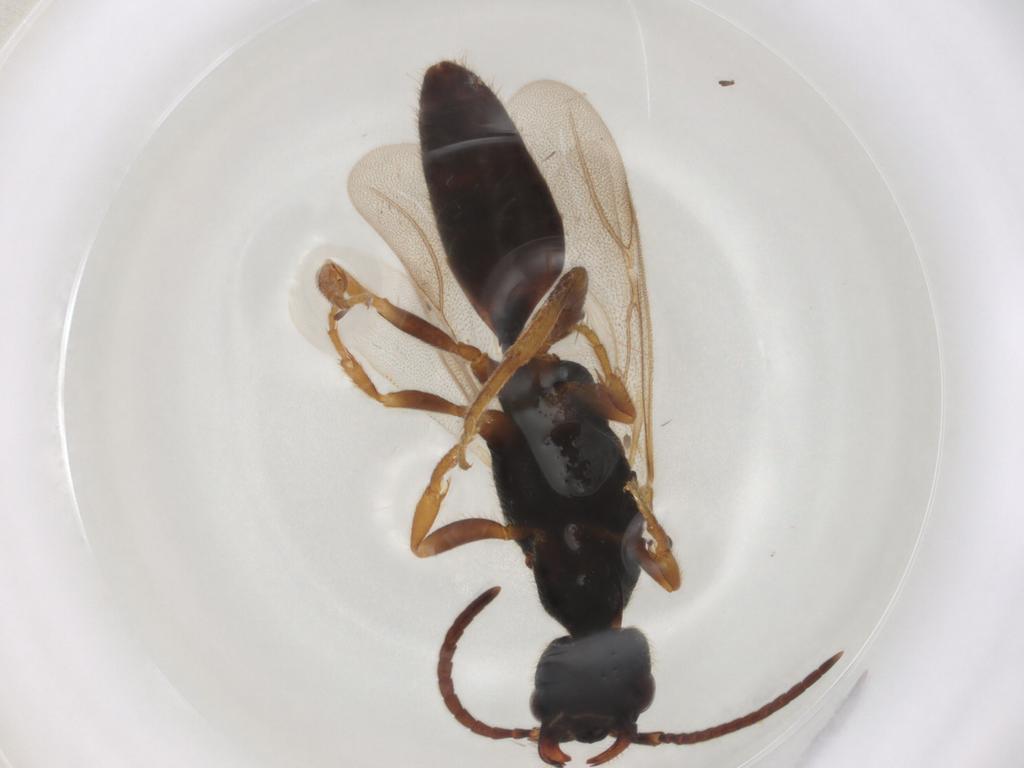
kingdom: Animalia
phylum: Arthropoda
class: Insecta
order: Hymenoptera
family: Bethylidae
